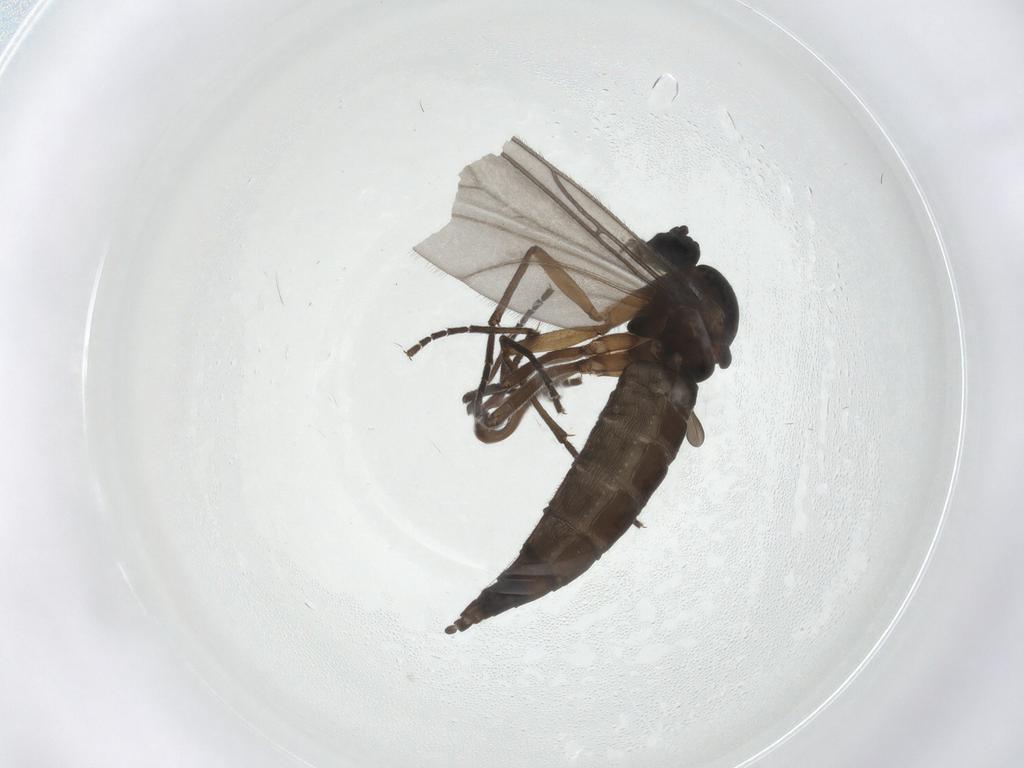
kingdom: Animalia
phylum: Arthropoda
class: Insecta
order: Diptera
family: Sciaridae
